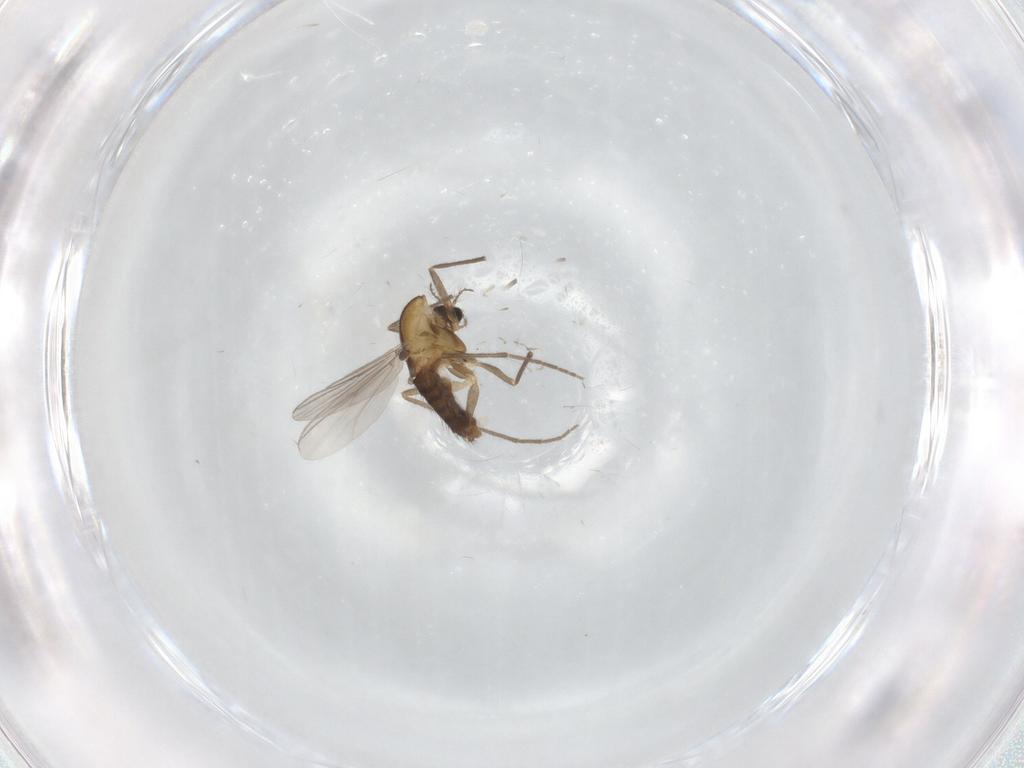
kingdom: Animalia
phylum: Arthropoda
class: Insecta
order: Diptera
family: Chironomidae
